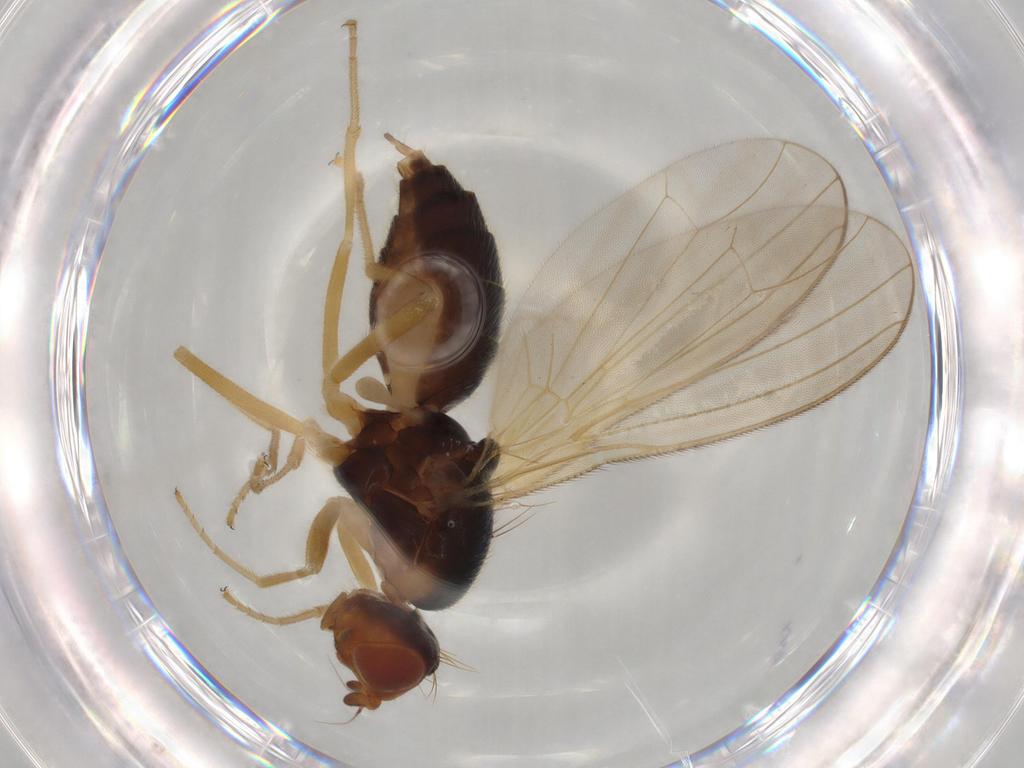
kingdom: Animalia
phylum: Arthropoda
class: Insecta
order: Diptera
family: Psilidae
